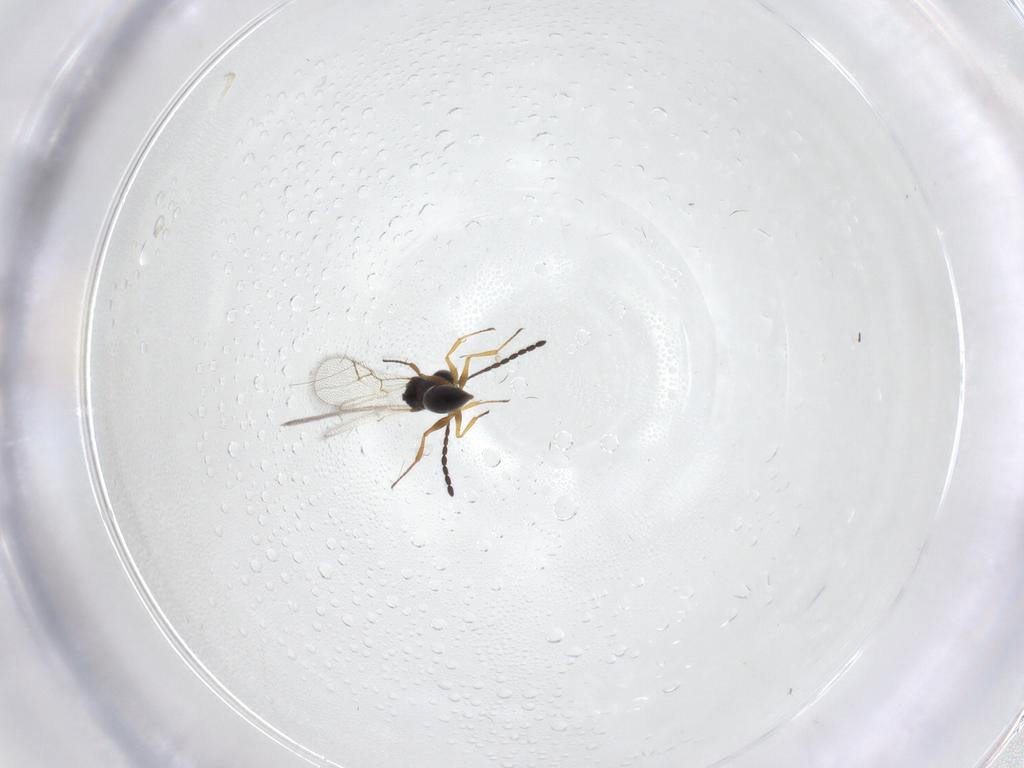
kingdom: Animalia
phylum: Arthropoda
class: Insecta
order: Hymenoptera
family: Figitidae
